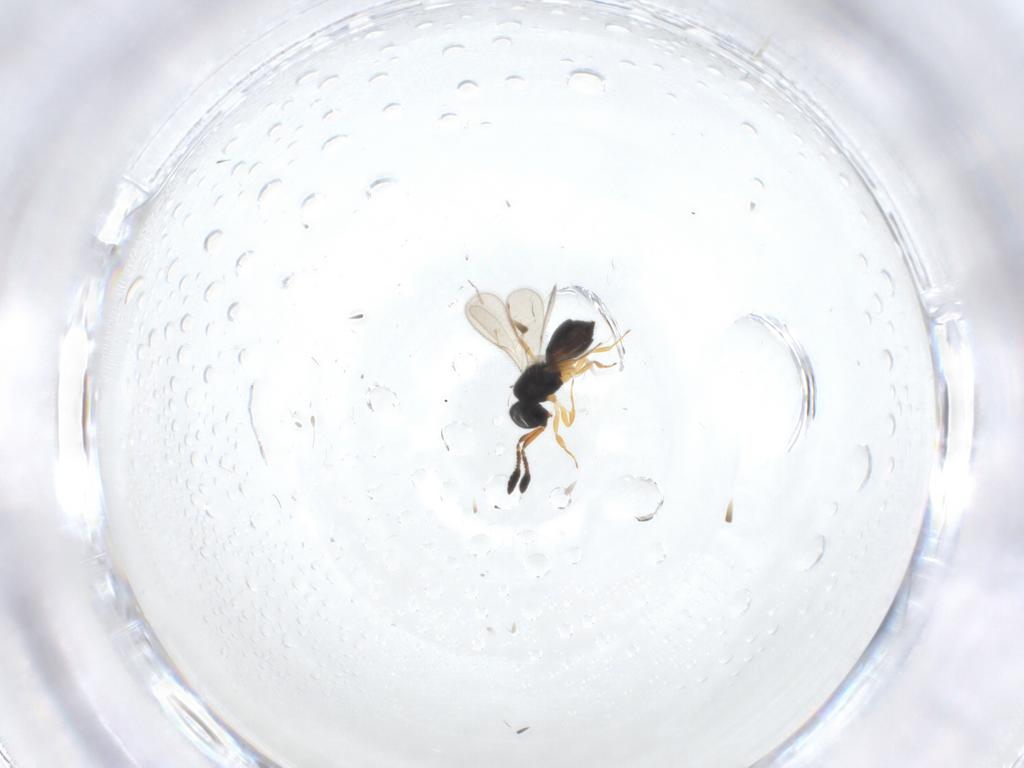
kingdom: Animalia
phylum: Arthropoda
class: Insecta
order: Hymenoptera
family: Scelionidae
